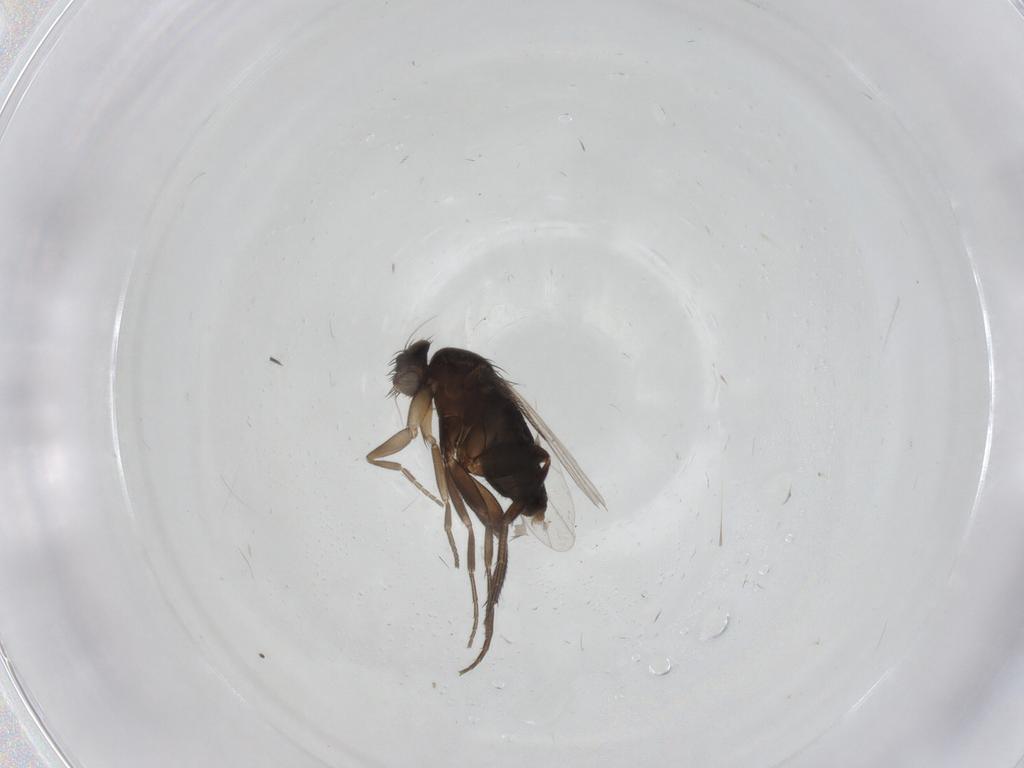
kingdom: Animalia
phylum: Arthropoda
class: Insecta
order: Diptera
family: Phoridae
